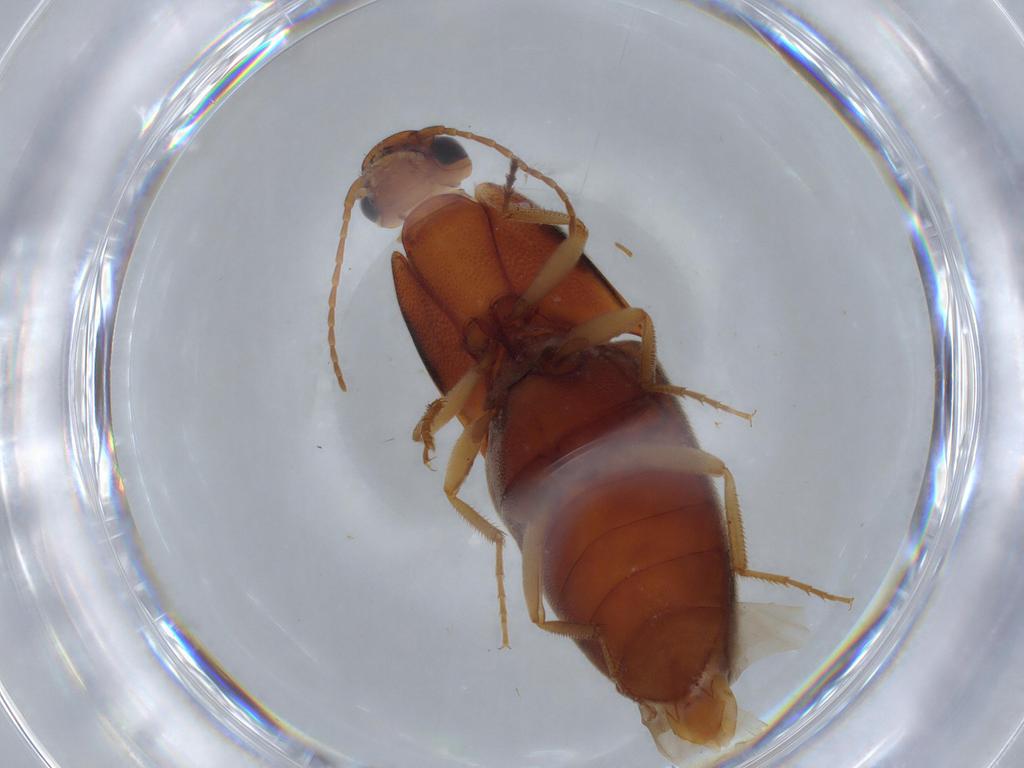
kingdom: Animalia
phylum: Arthropoda
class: Insecta
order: Coleoptera
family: Elateridae
